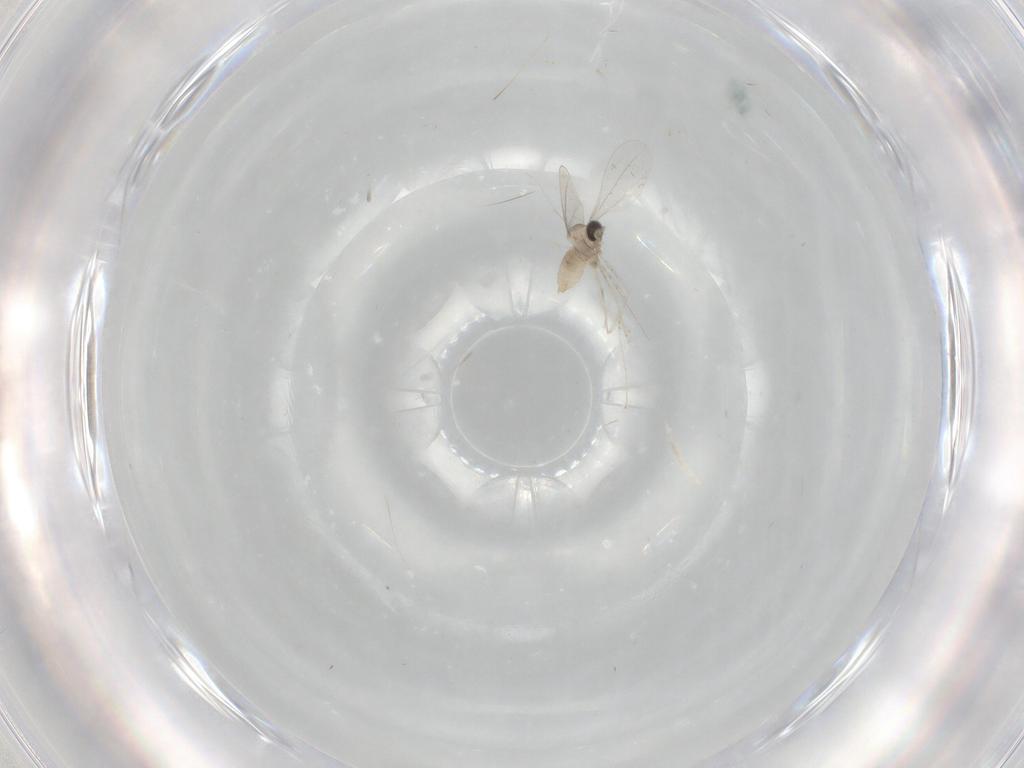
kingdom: Animalia
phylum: Arthropoda
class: Insecta
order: Diptera
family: Cecidomyiidae
